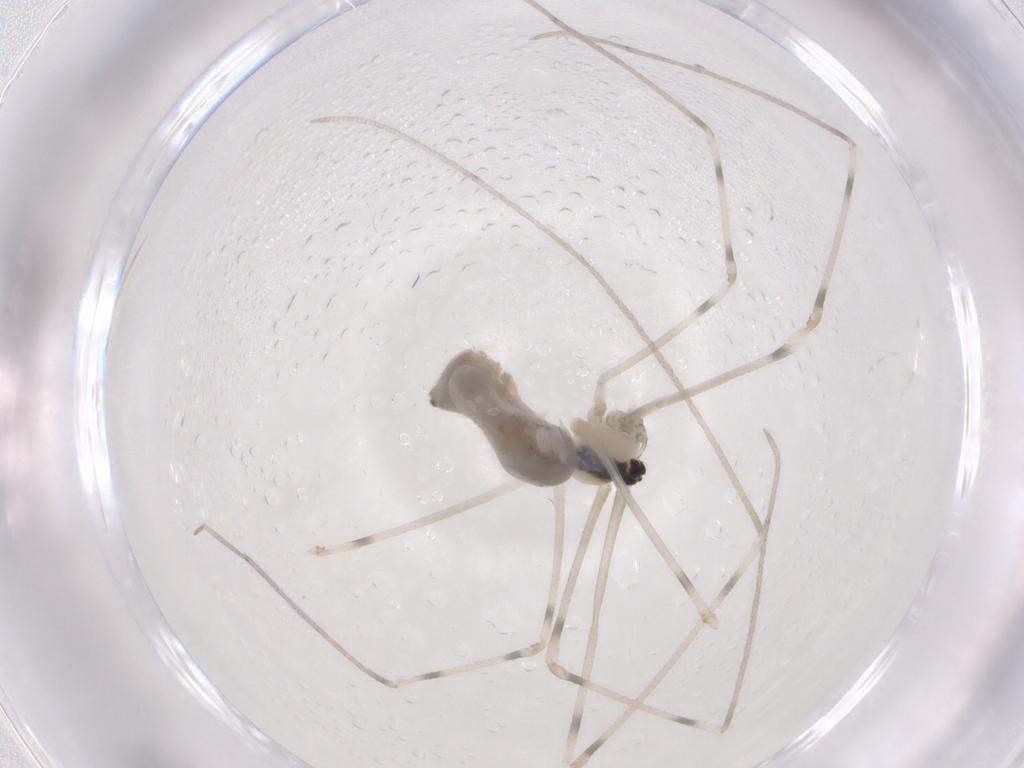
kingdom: Animalia
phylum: Arthropoda
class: Arachnida
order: Araneae
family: Pholcidae
